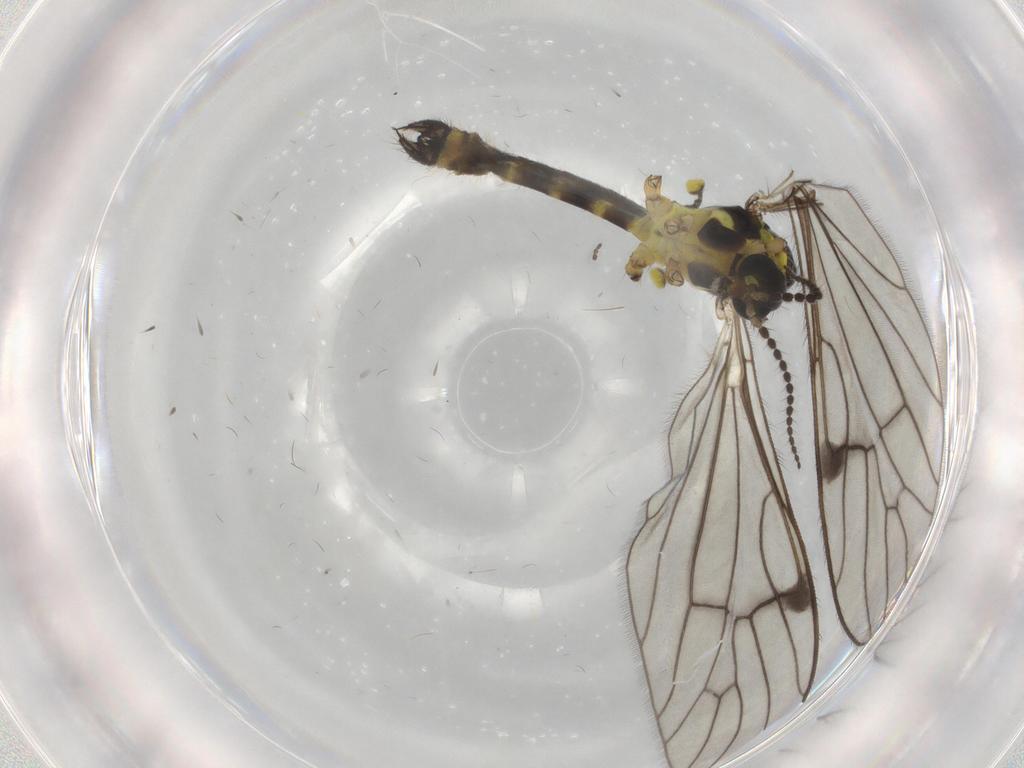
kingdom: Animalia
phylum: Arthropoda
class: Insecta
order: Diptera
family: Limoniidae
